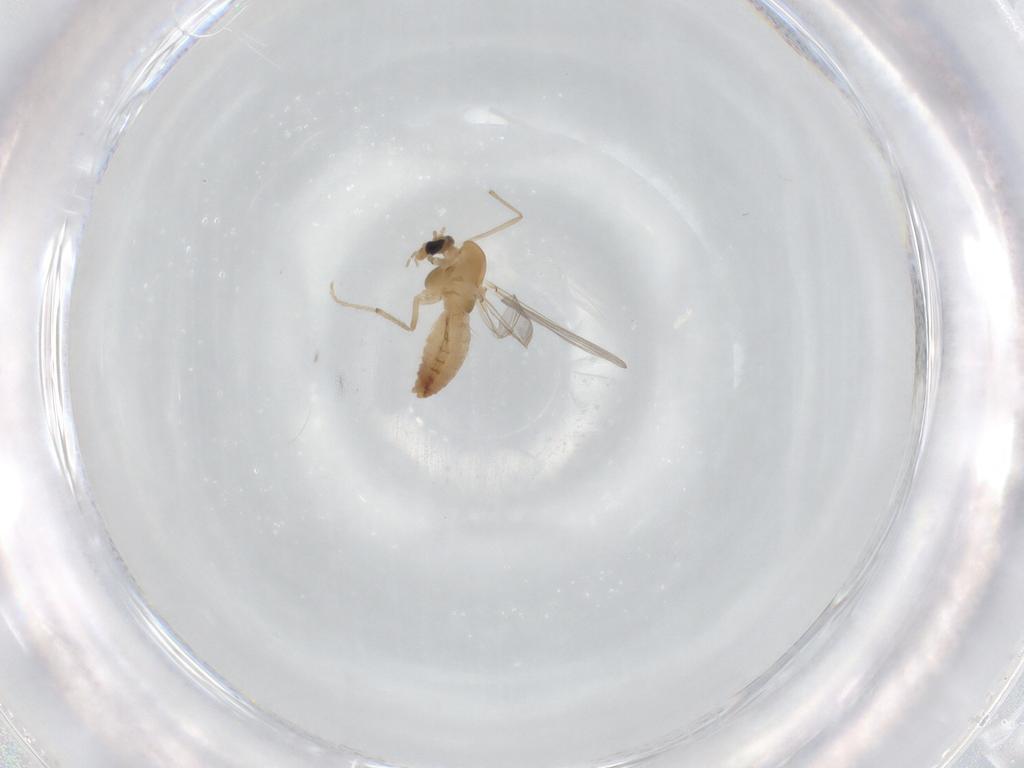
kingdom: Animalia
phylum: Arthropoda
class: Insecta
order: Diptera
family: Chironomidae
